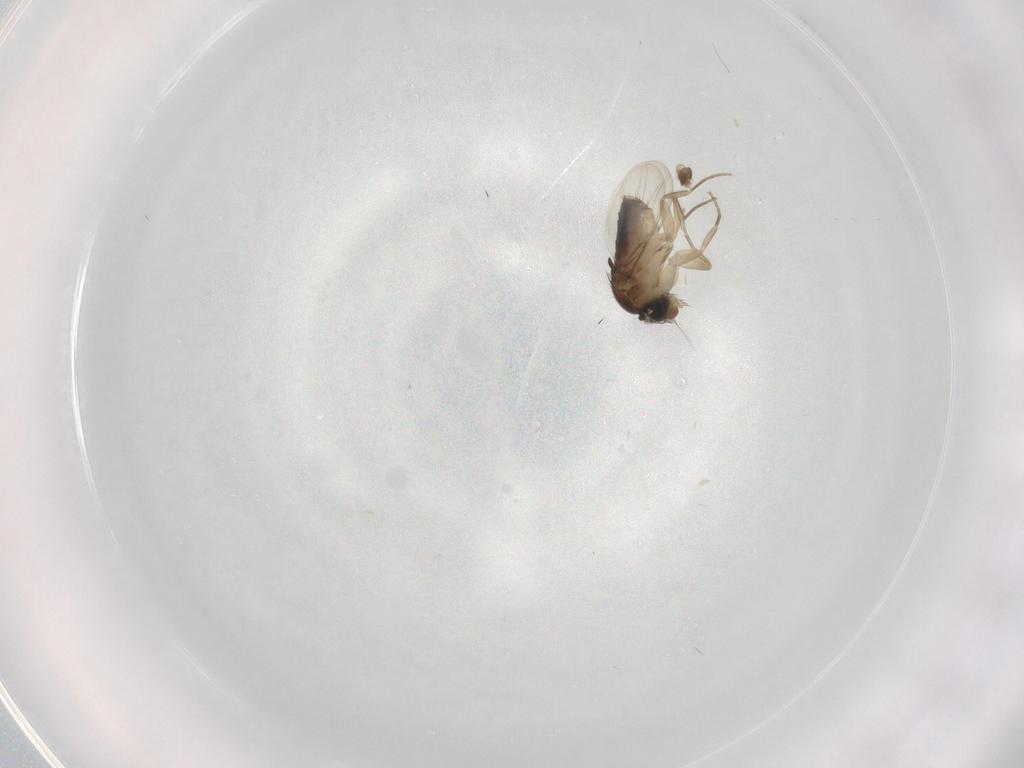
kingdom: Animalia
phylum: Arthropoda
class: Insecta
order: Diptera
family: Phoridae
